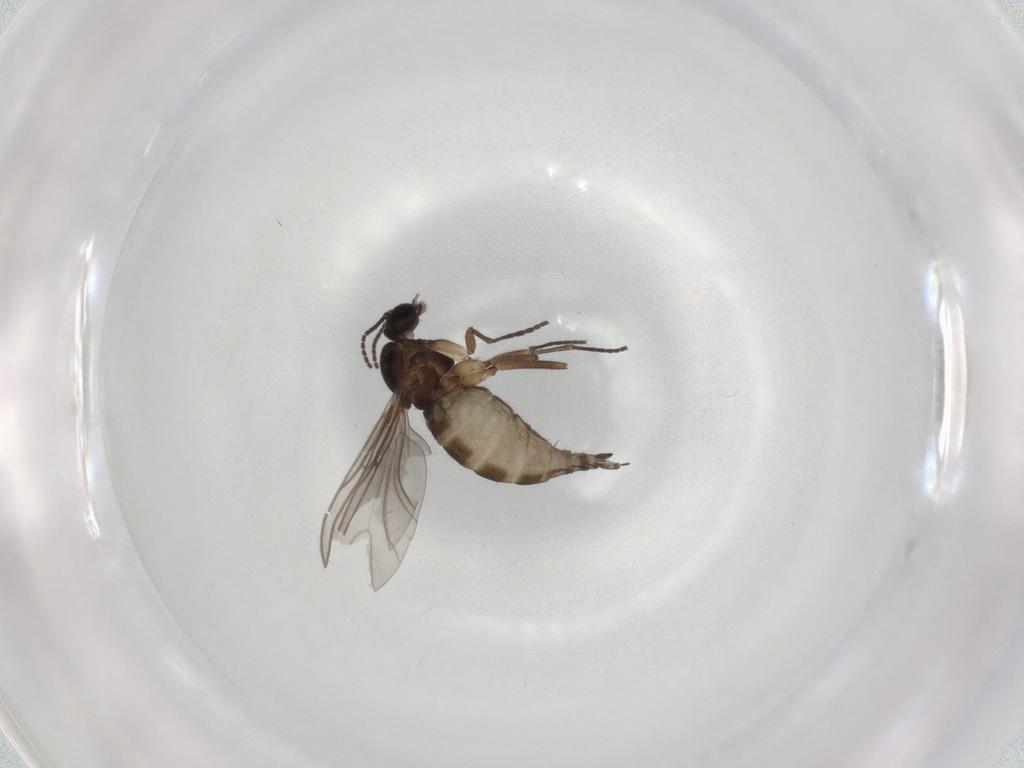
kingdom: Animalia
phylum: Arthropoda
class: Insecta
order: Diptera
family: Sciaridae
